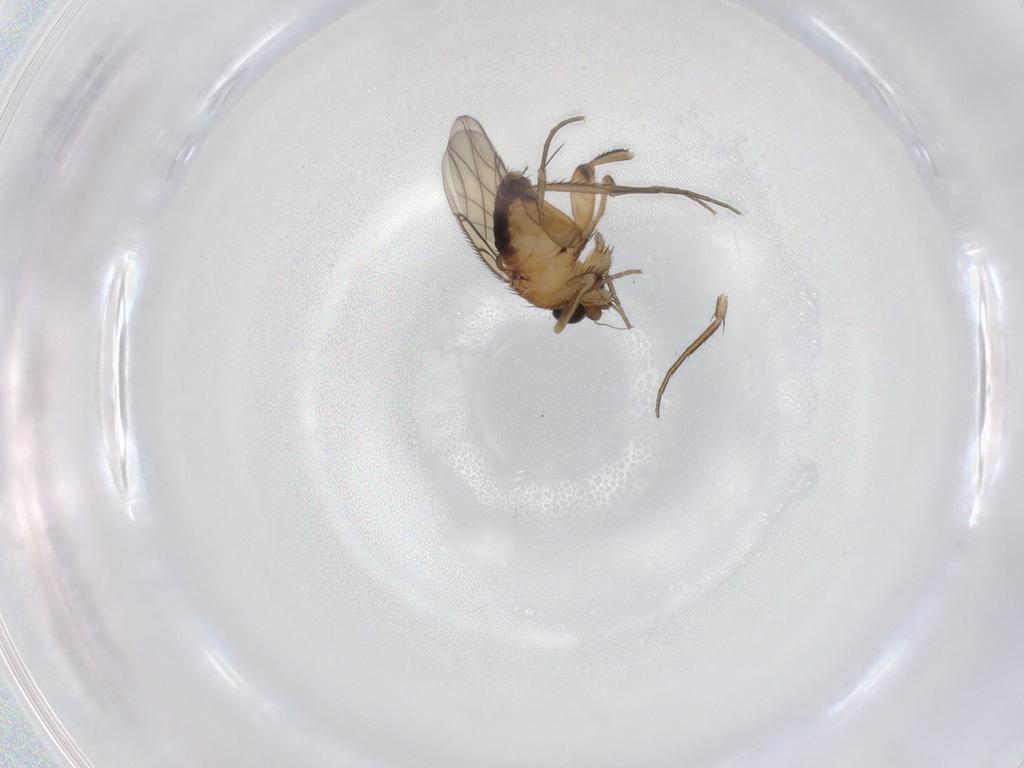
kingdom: Animalia
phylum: Arthropoda
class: Insecta
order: Diptera
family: Phoridae
